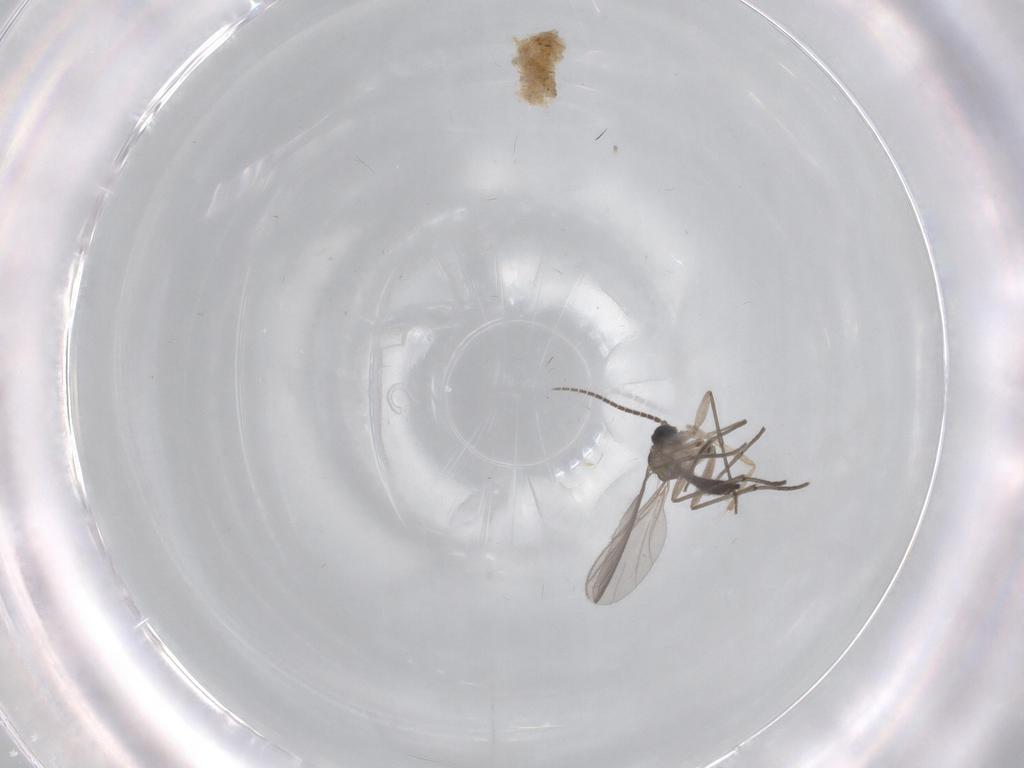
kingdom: Animalia
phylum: Arthropoda
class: Insecta
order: Diptera
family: Sciaridae
